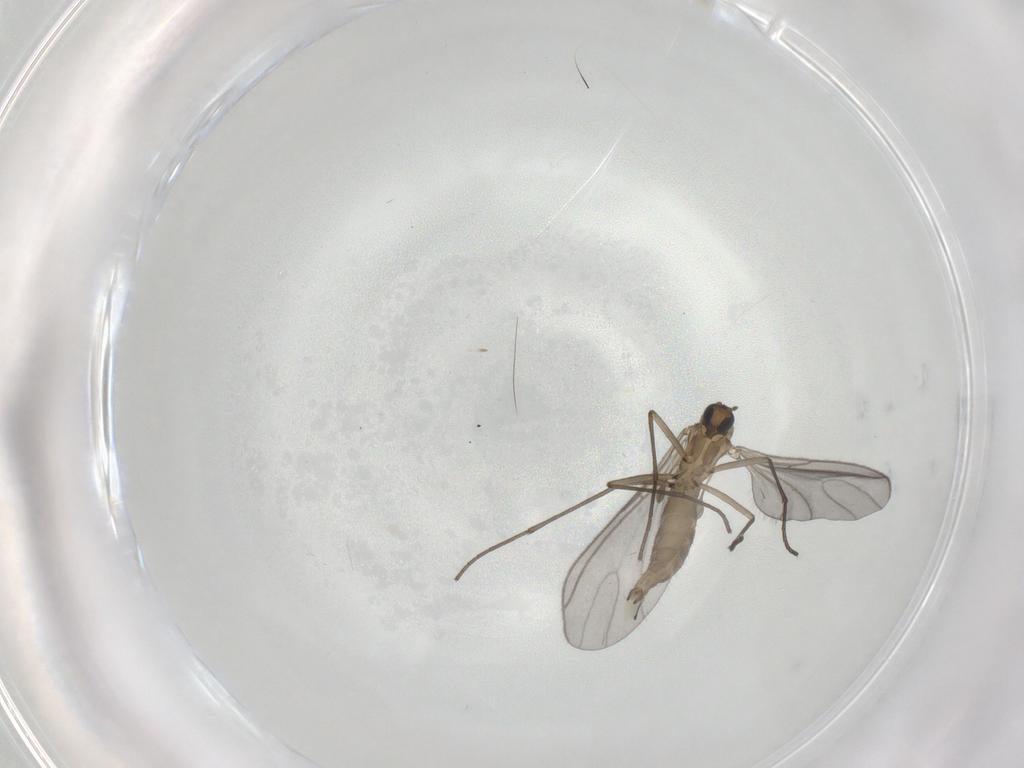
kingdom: Animalia
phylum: Arthropoda
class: Insecta
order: Diptera
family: Sciaridae
